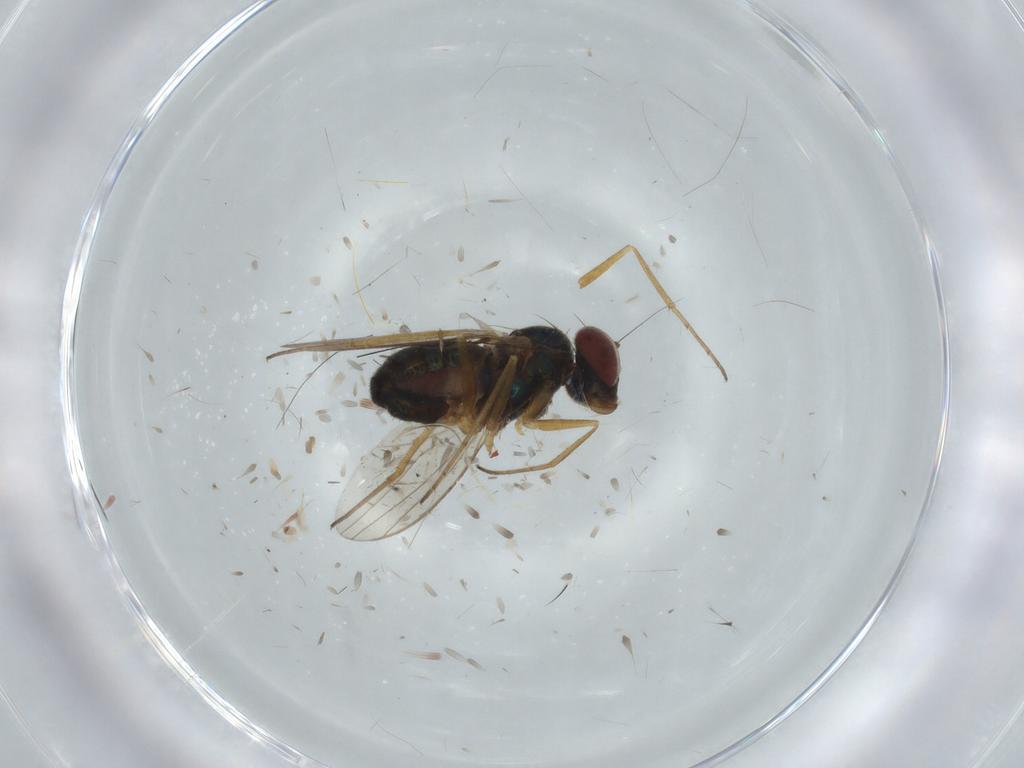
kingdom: Animalia
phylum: Arthropoda
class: Insecta
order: Diptera
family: Dolichopodidae
